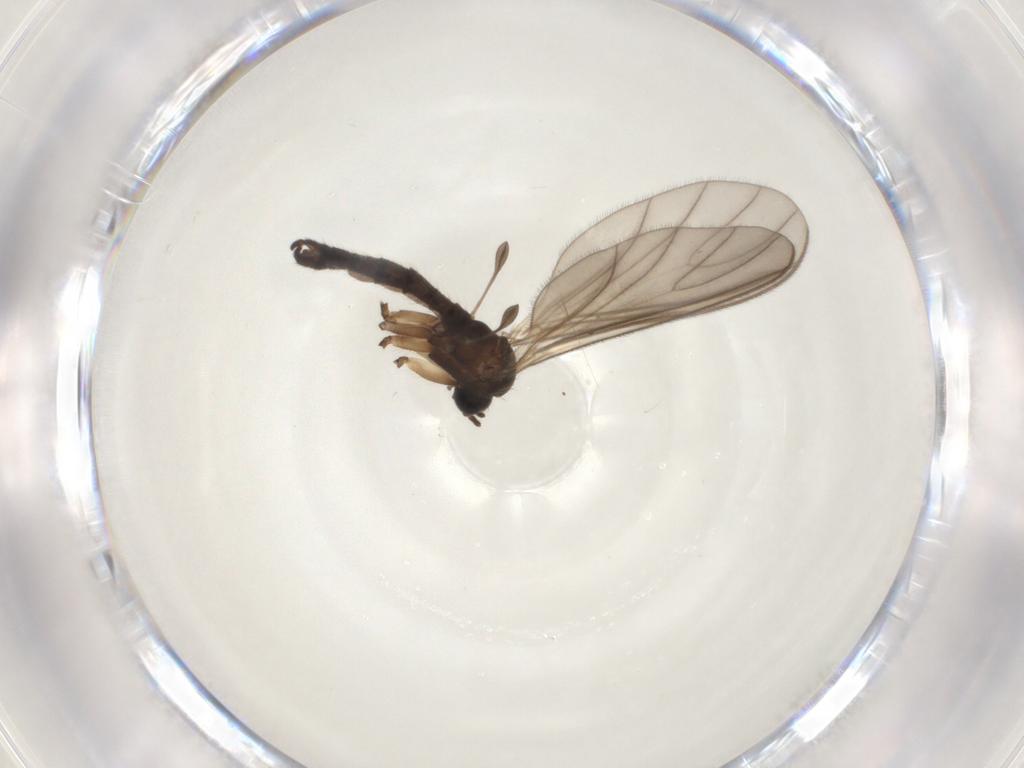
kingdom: Animalia
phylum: Arthropoda
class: Insecta
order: Diptera
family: Sciaridae
